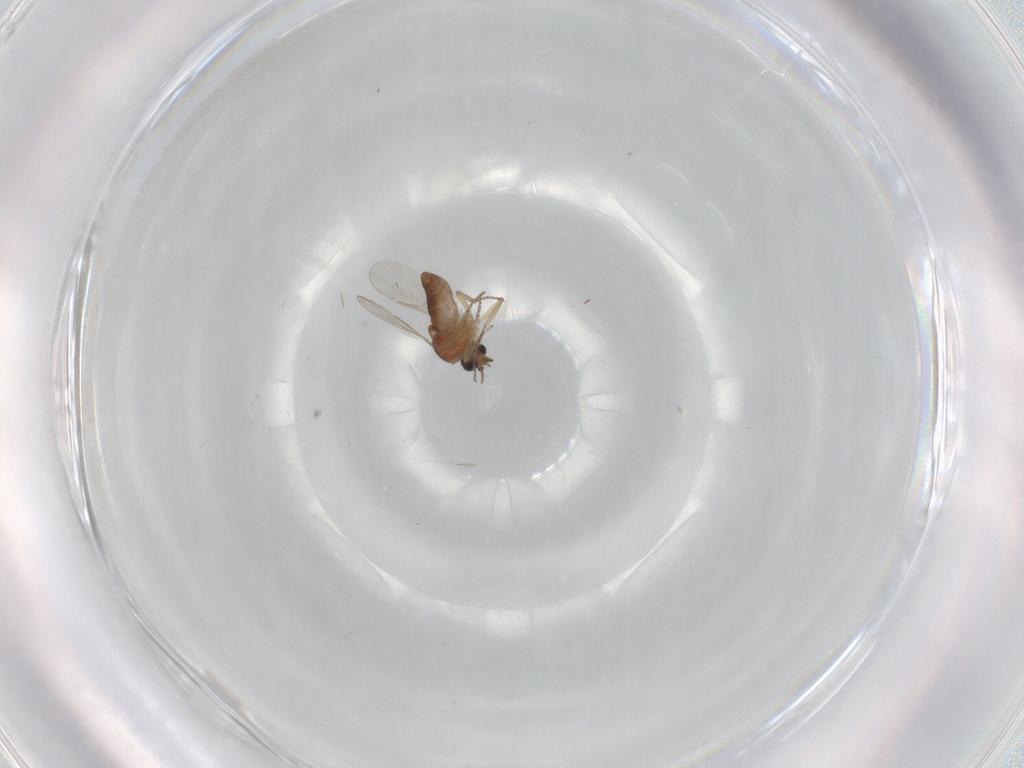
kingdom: Animalia
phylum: Arthropoda
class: Insecta
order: Diptera
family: Ceratopogonidae
